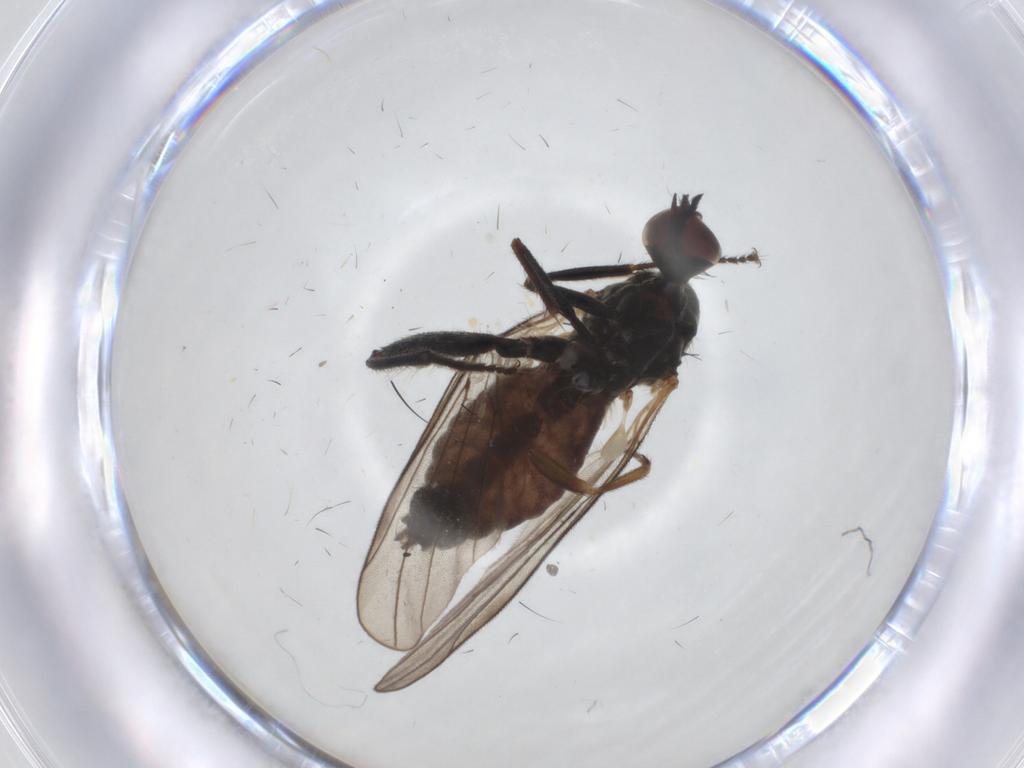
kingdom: Animalia
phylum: Arthropoda
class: Insecta
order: Diptera
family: Hybotidae
